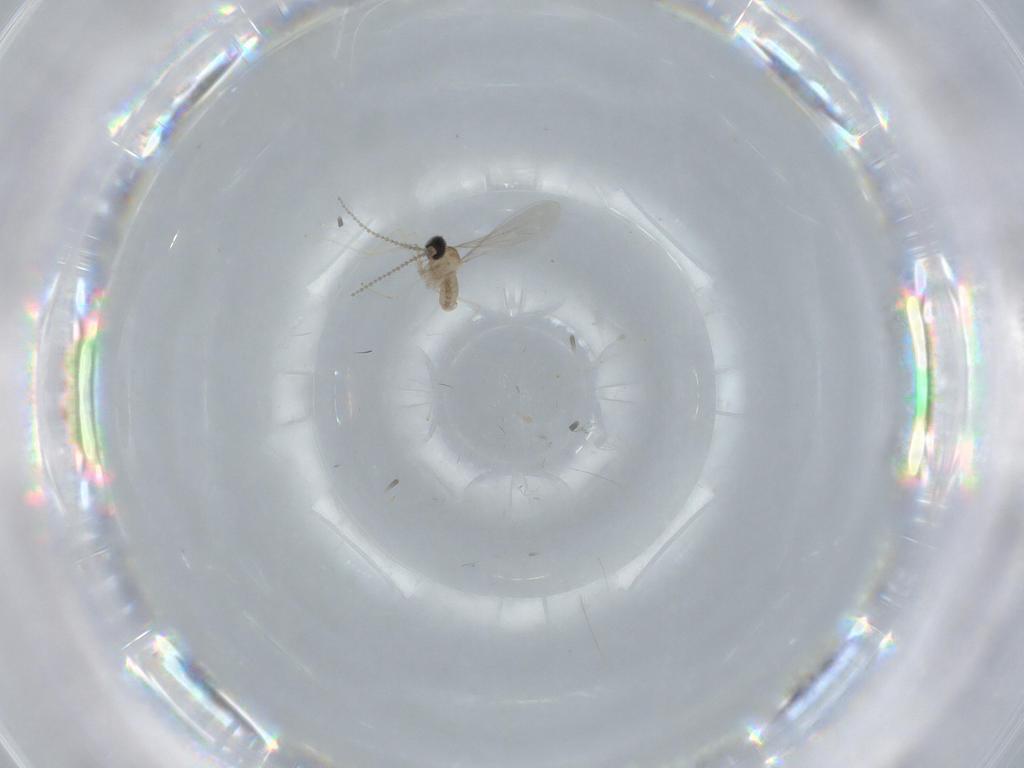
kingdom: Animalia
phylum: Arthropoda
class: Insecta
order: Diptera
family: Cecidomyiidae
